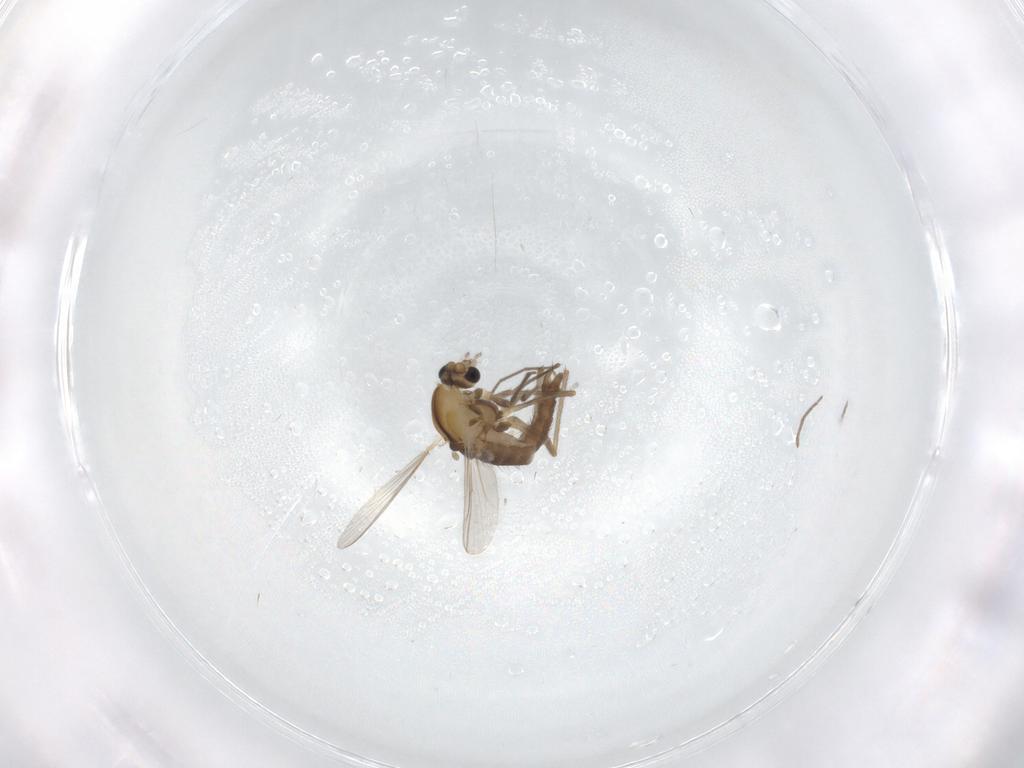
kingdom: Animalia
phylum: Arthropoda
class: Insecta
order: Diptera
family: Chironomidae
